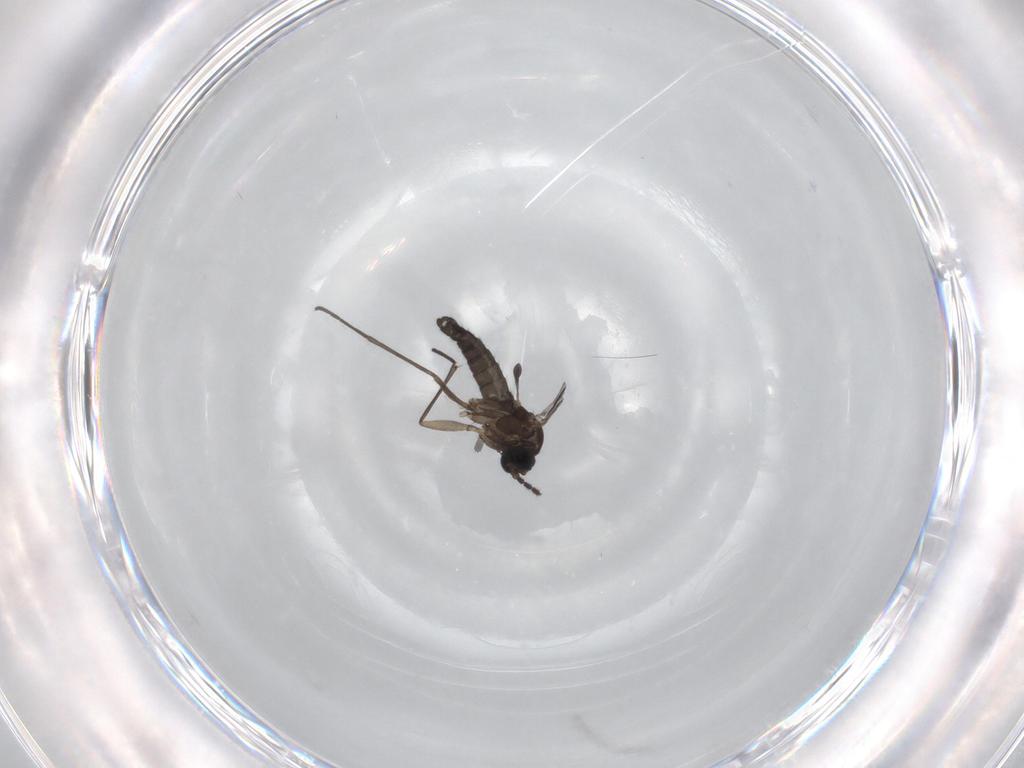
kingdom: Animalia
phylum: Arthropoda
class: Insecta
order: Diptera
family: Sciaridae
